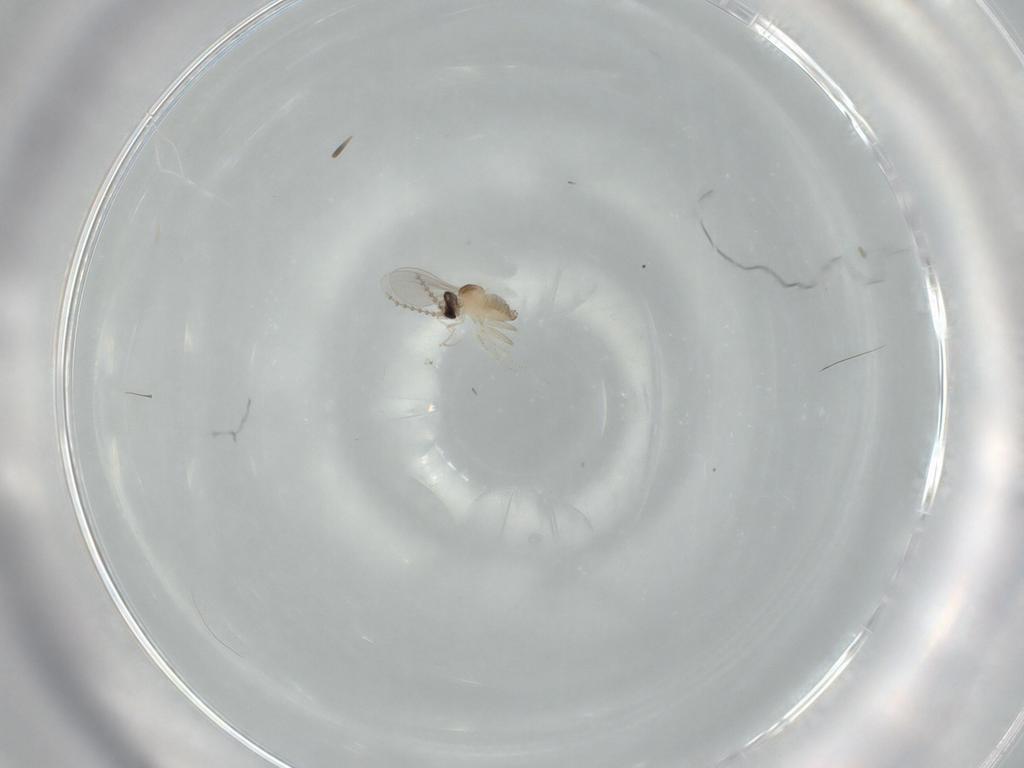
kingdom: Animalia
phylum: Arthropoda
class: Insecta
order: Diptera
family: Cecidomyiidae
